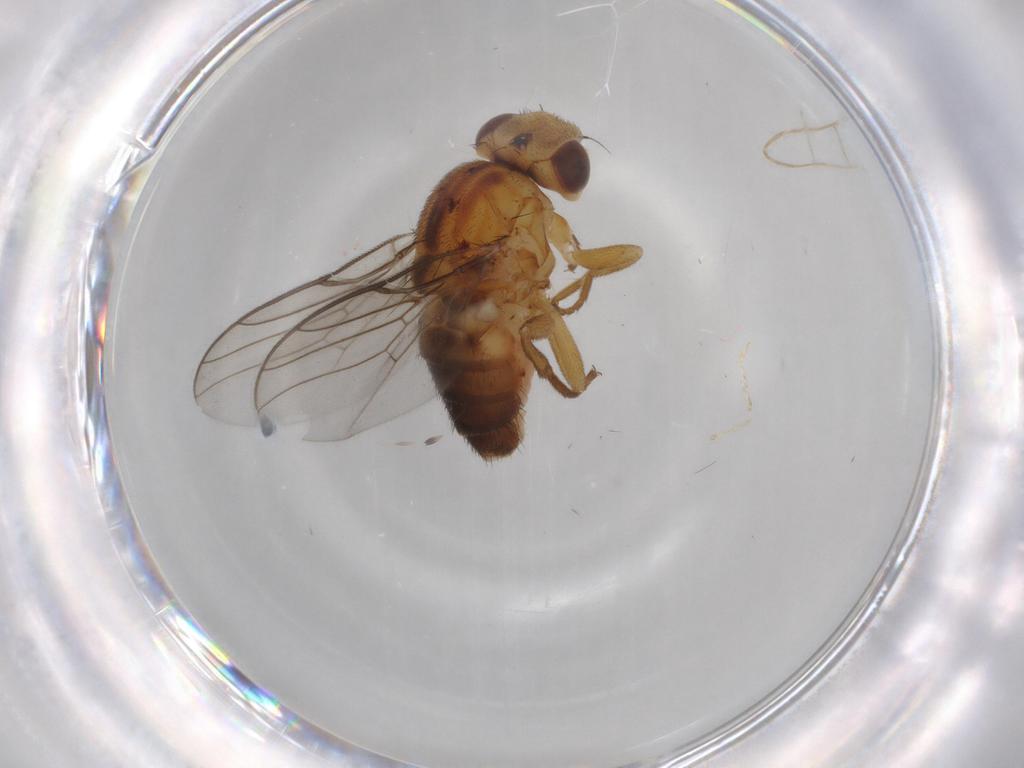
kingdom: Animalia
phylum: Arthropoda
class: Insecta
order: Diptera
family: Chloropidae
